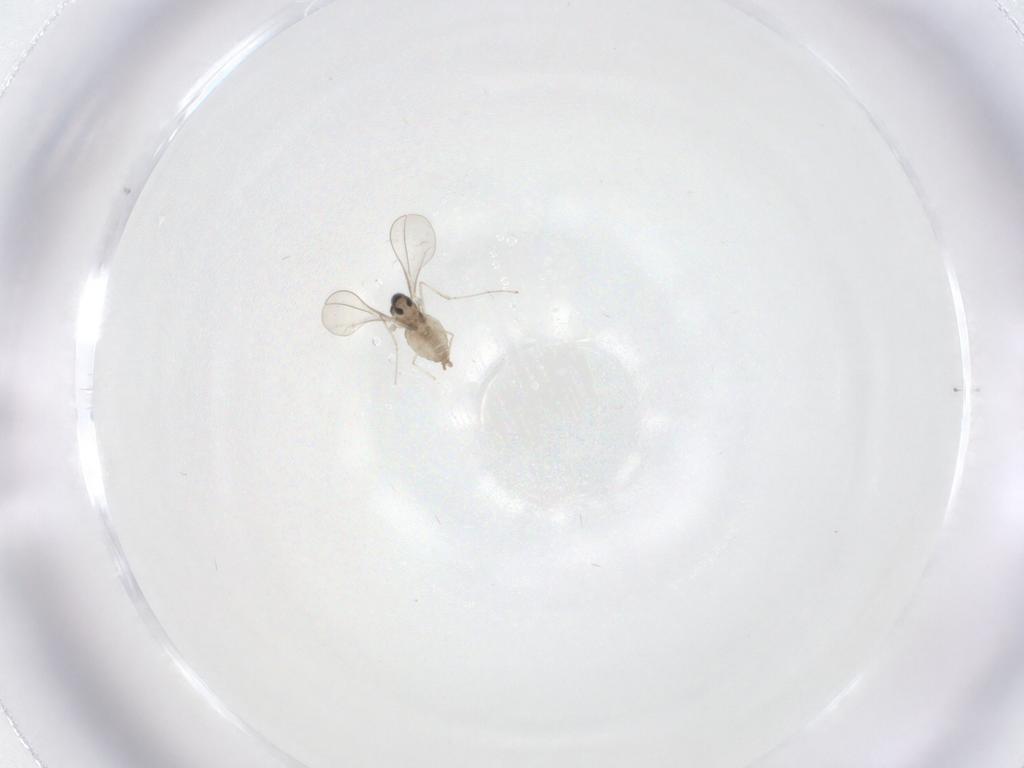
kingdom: Animalia
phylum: Arthropoda
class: Insecta
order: Diptera
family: Cecidomyiidae
